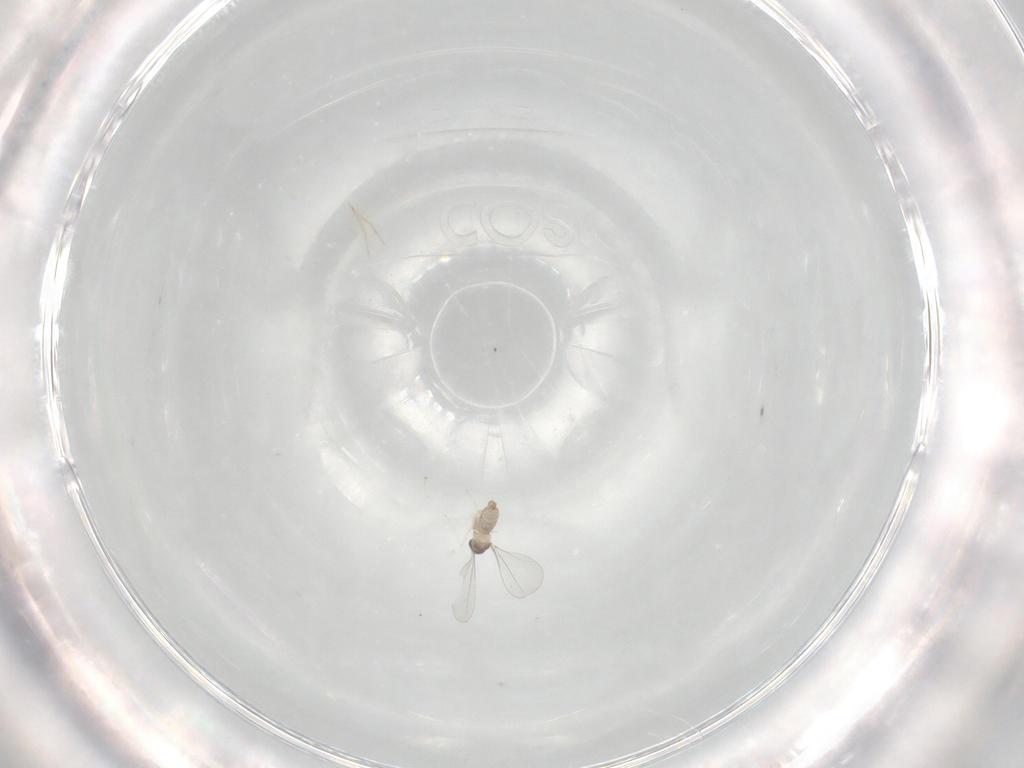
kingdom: Animalia
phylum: Arthropoda
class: Insecta
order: Diptera
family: Cecidomyiidae
